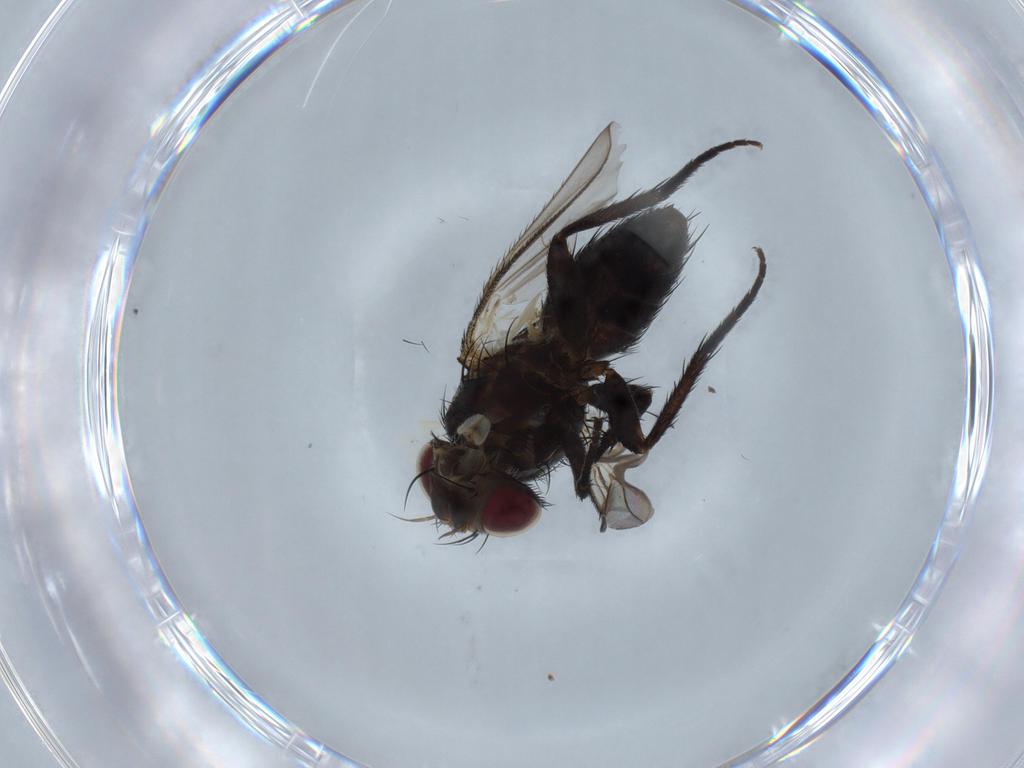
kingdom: Animalia
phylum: Arthropoda
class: Insecta
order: Diptera
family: Tachinidae
